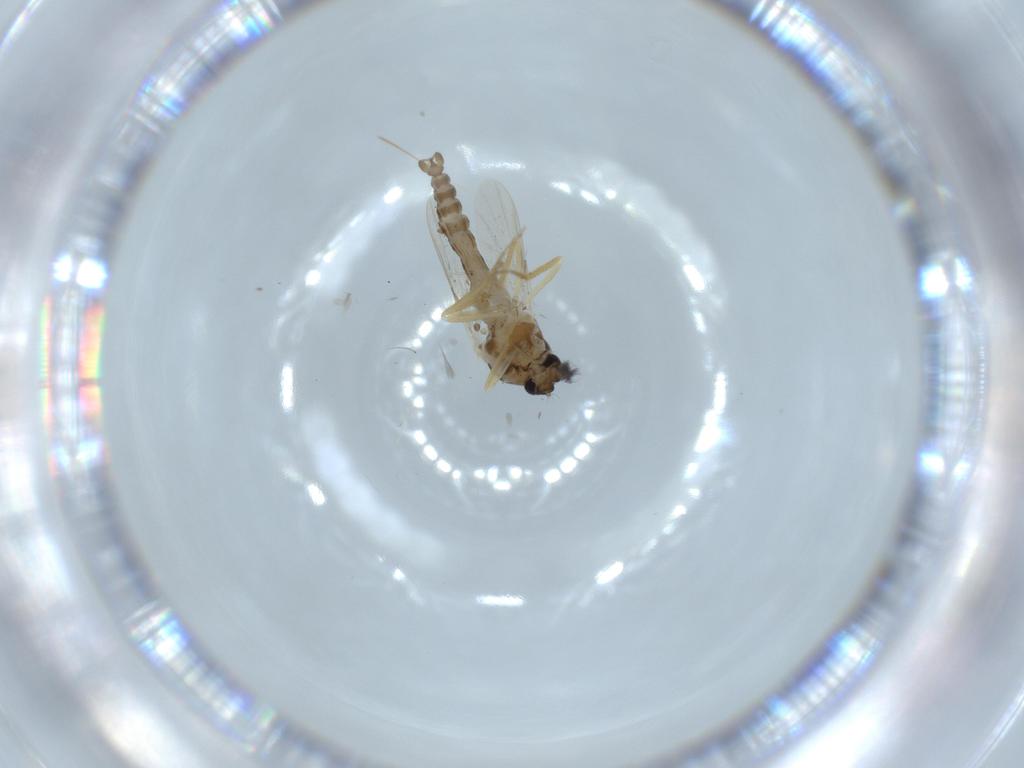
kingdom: Animalia
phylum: Arthropoda
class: Insecta
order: Diptera
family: Ceratopogonidae
